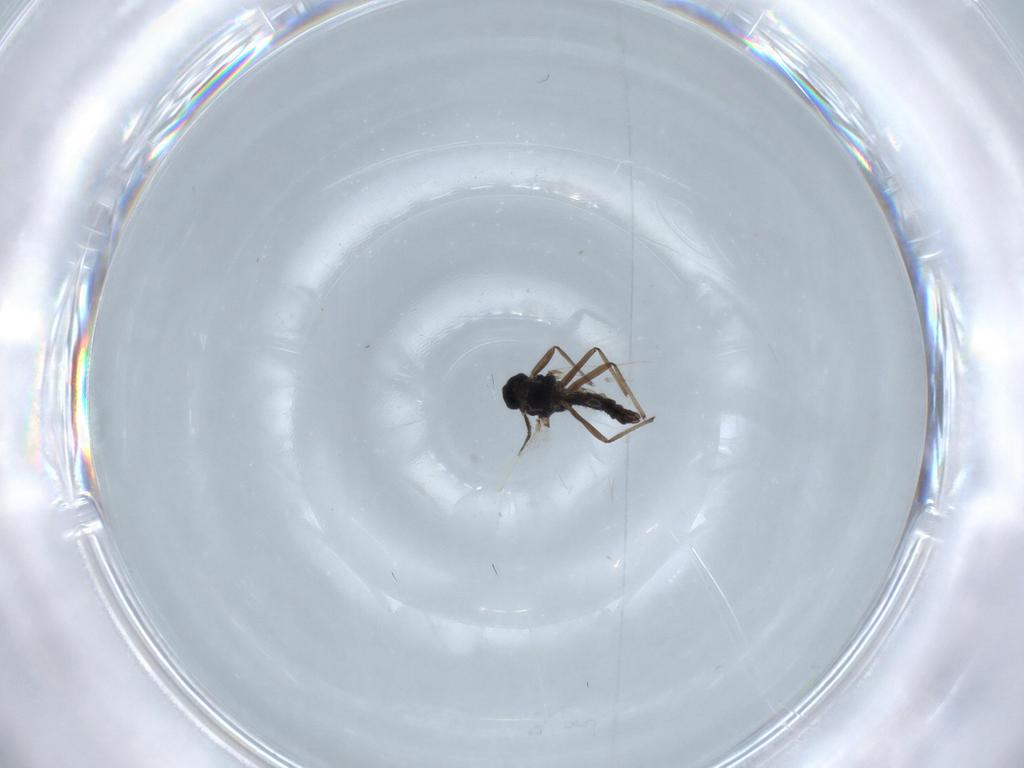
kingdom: Animalia
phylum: Arthropoda
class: Insecta
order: Diptera
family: Chironomidae
